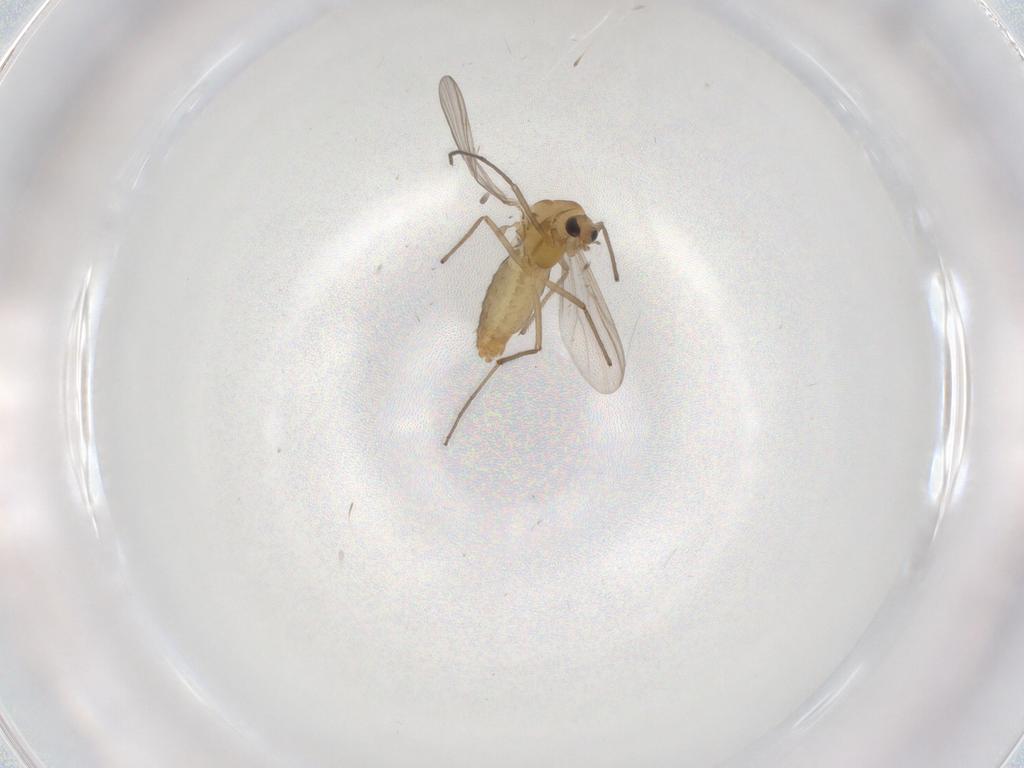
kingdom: Animalia
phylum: Arthropoda
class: Insecta
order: Diptera
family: Chironomidae
